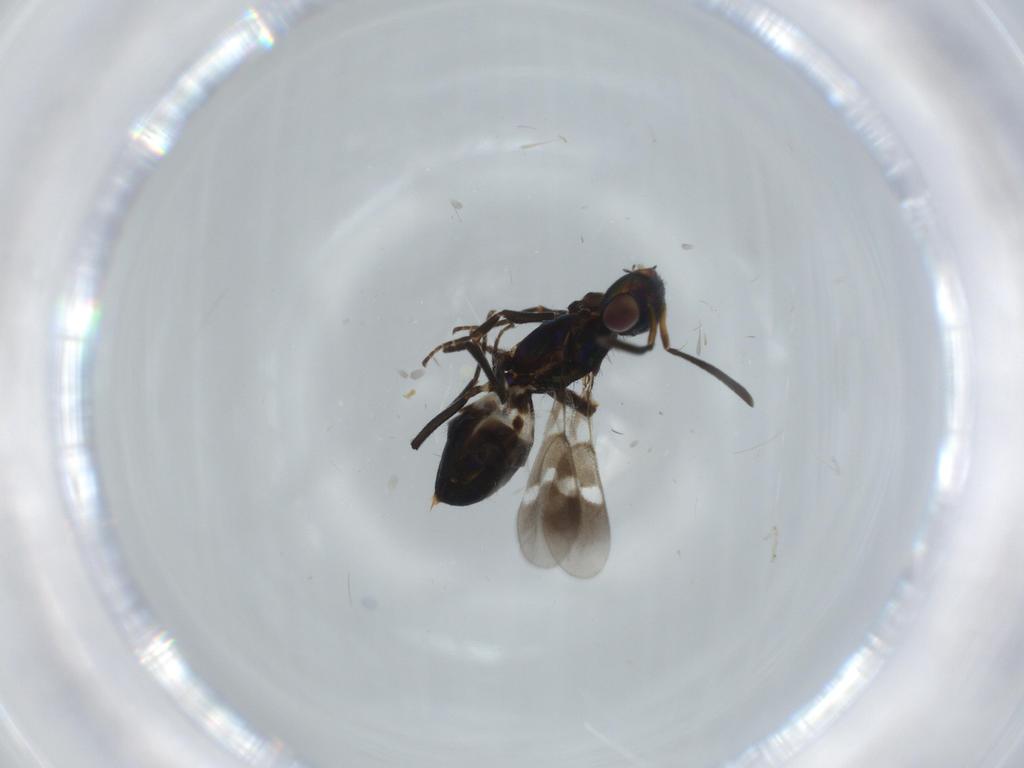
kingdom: Animalia
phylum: Arthropoda
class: Insecta
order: Hymenoptera
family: Eupelmidae
